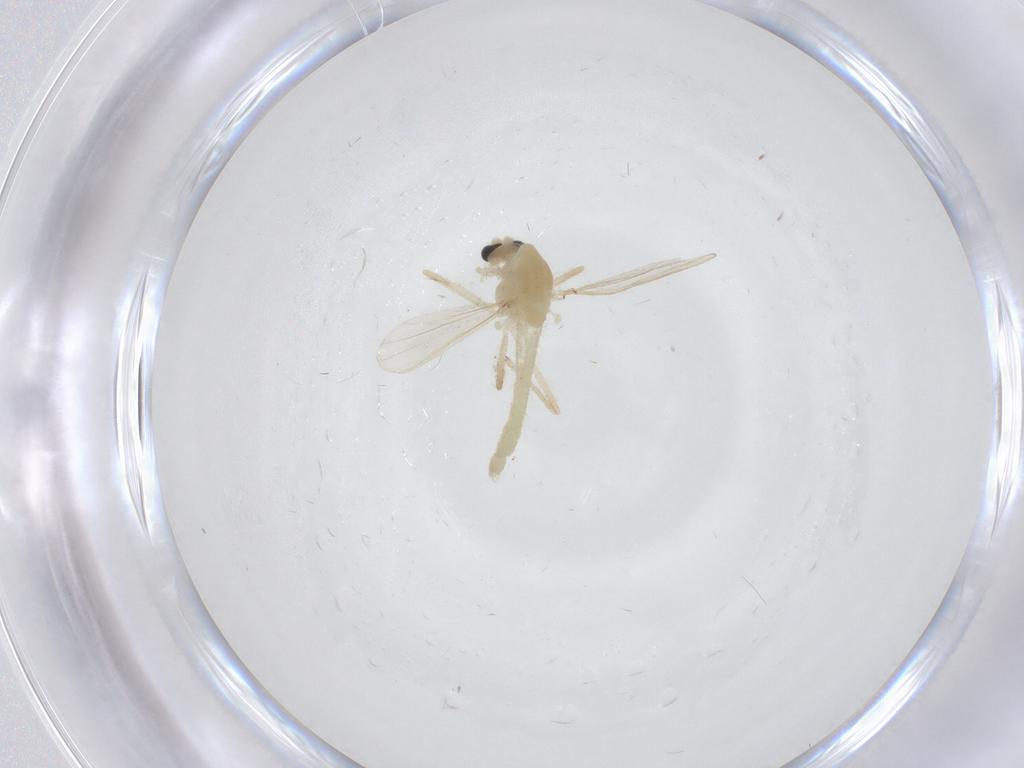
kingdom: Animalia
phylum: Arthropoda
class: Insecta
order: Diptera
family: Chironomidae
